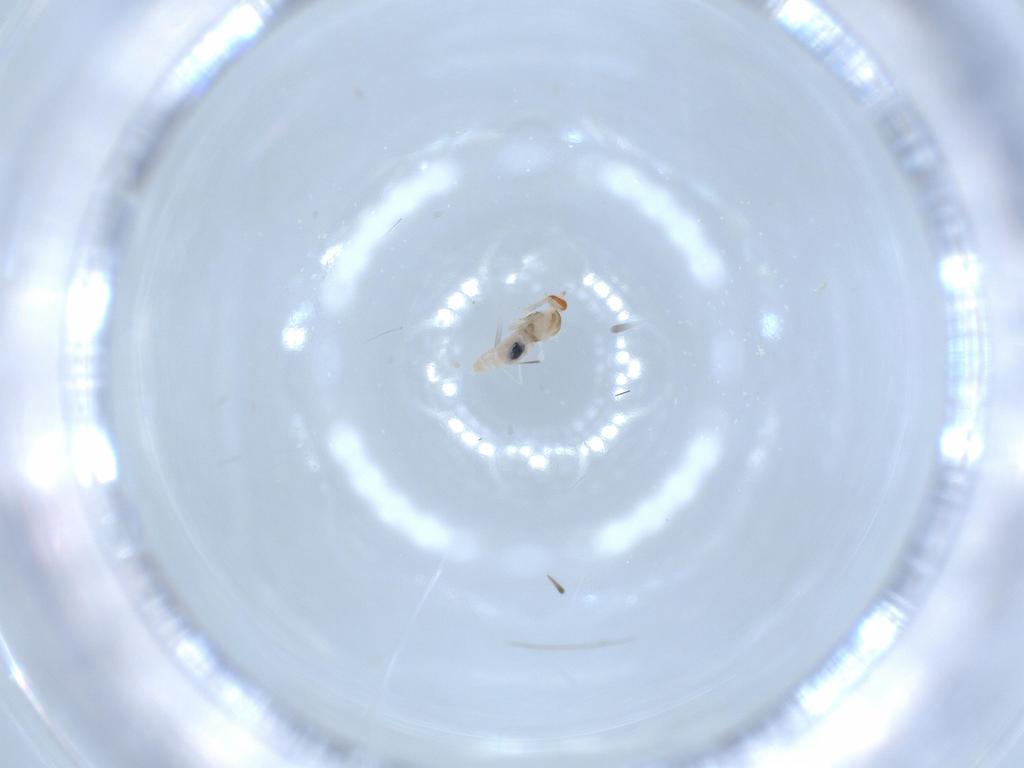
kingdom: Animalia
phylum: Arthropoda
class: Insecta
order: Diptera
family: Cecidomyiidae
